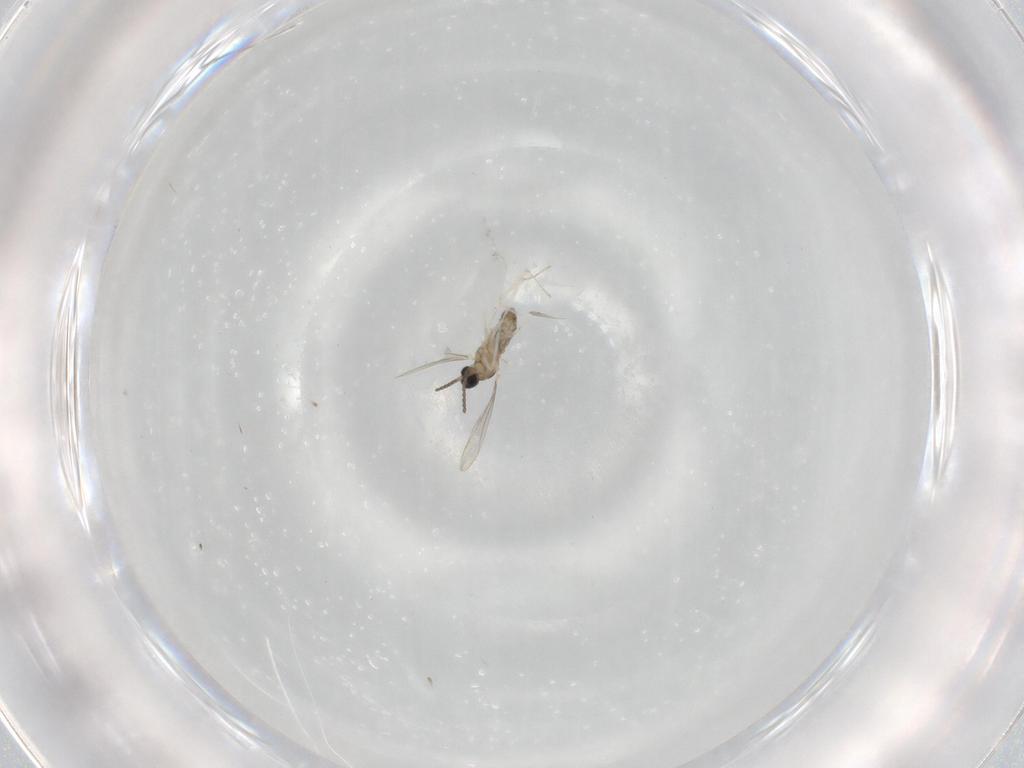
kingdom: Animalia
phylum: Arthropoda
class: Insecta
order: Diptera
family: Cecidomyiidae
